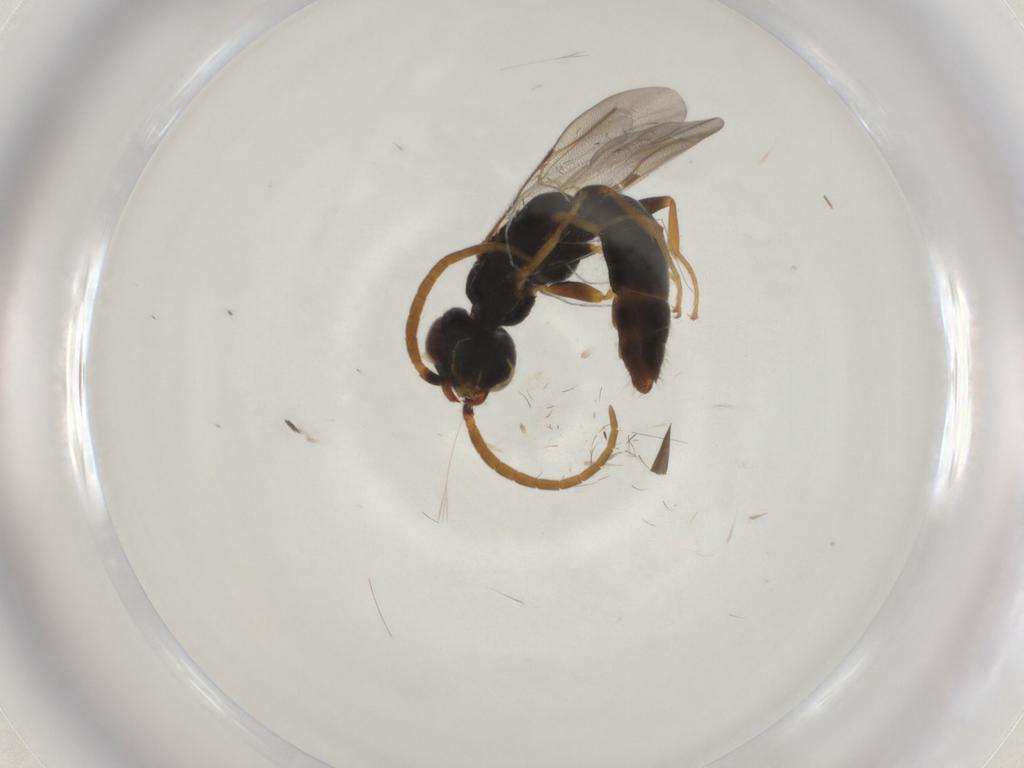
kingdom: Animalia
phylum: Arthropoda
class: Insecta
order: Hymenoptera
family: Bethylidae
